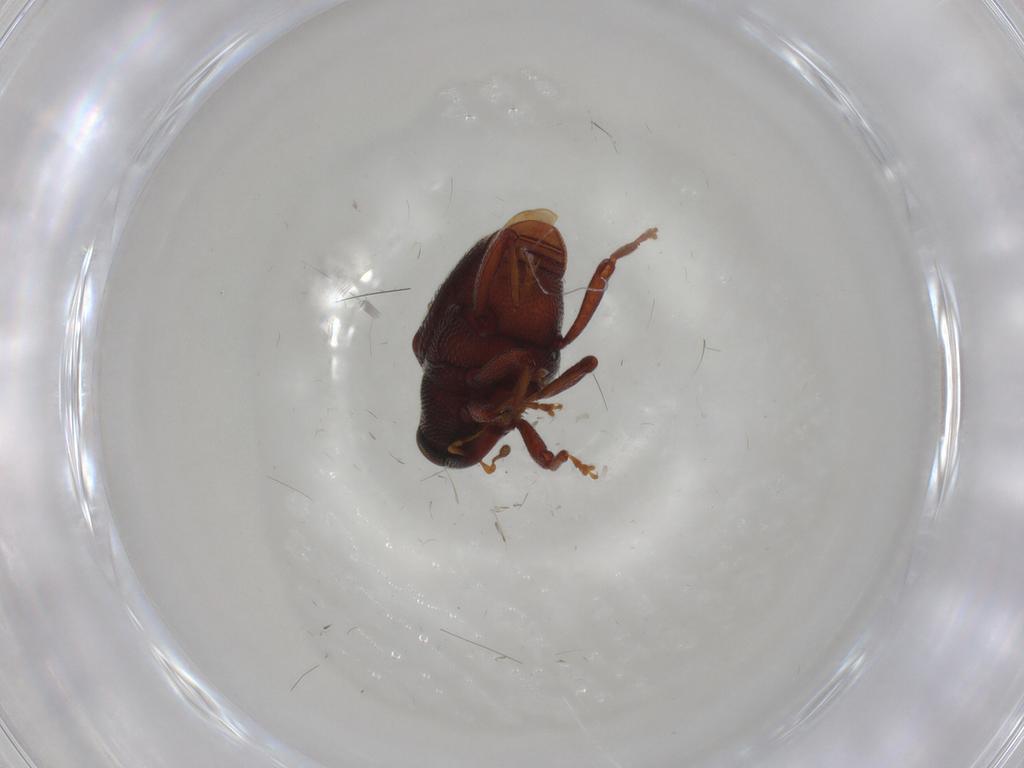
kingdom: Animalia
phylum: Arthropoda
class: Insecta
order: Coleoptera
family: Curculionidae
